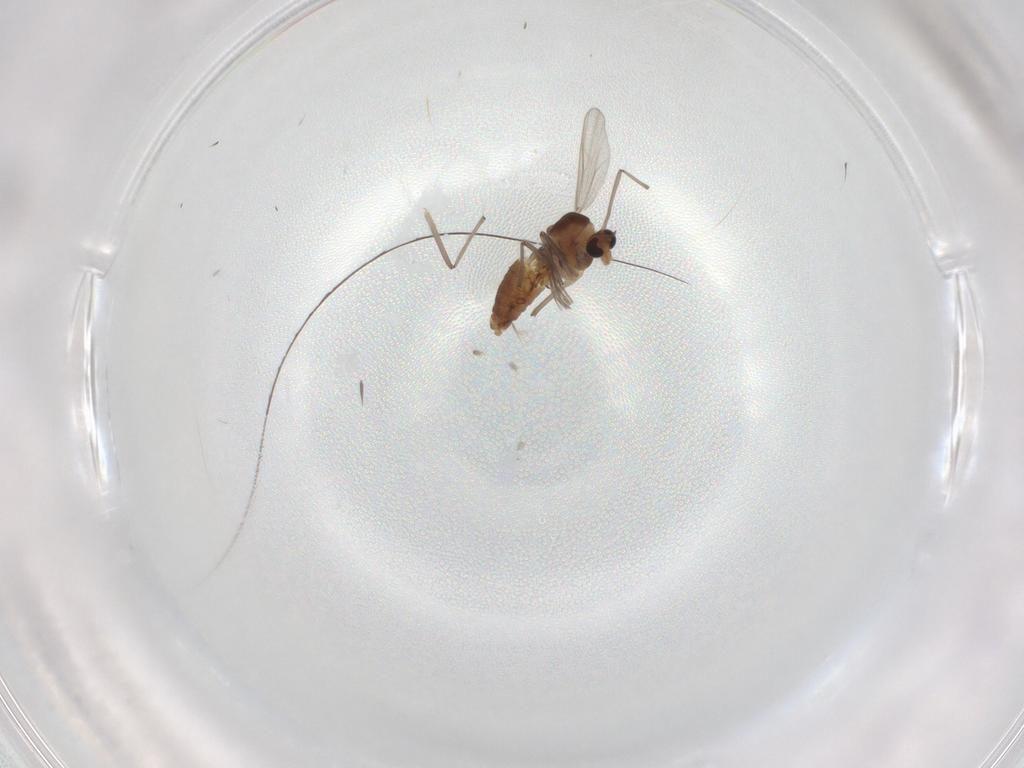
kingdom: Animalia
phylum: Arthropoda
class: Insecta
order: Diptera
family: Chironomidae
